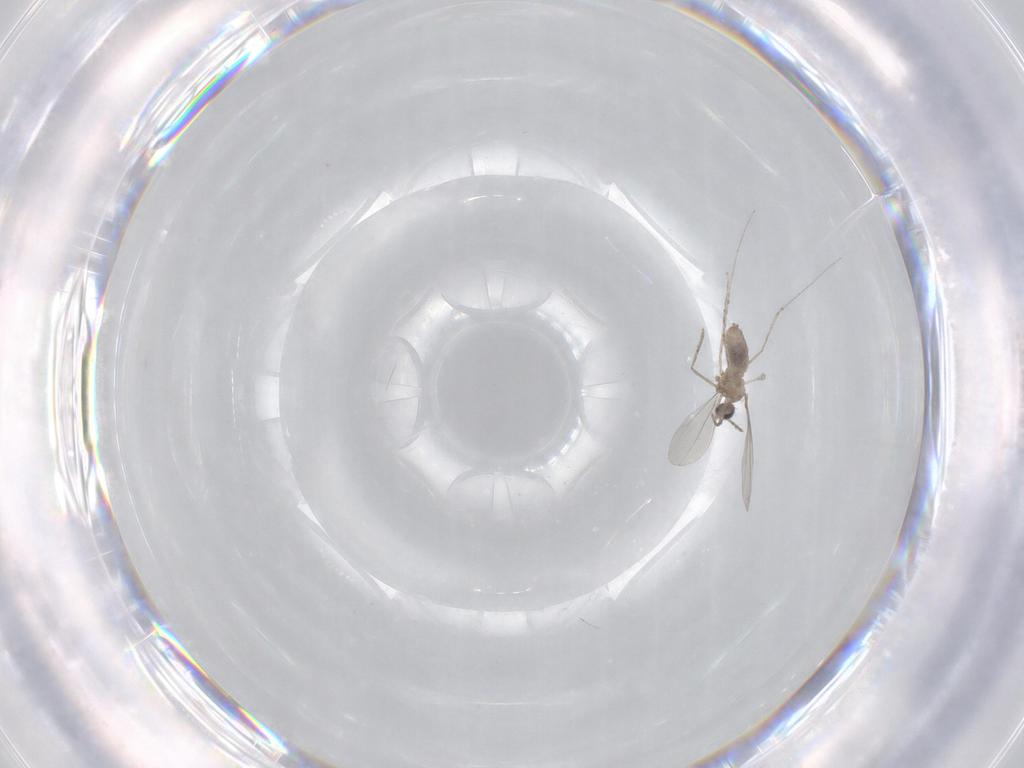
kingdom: Animalia
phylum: Arthropoda
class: Insecta
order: Diptera
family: Cecidomyiidae
